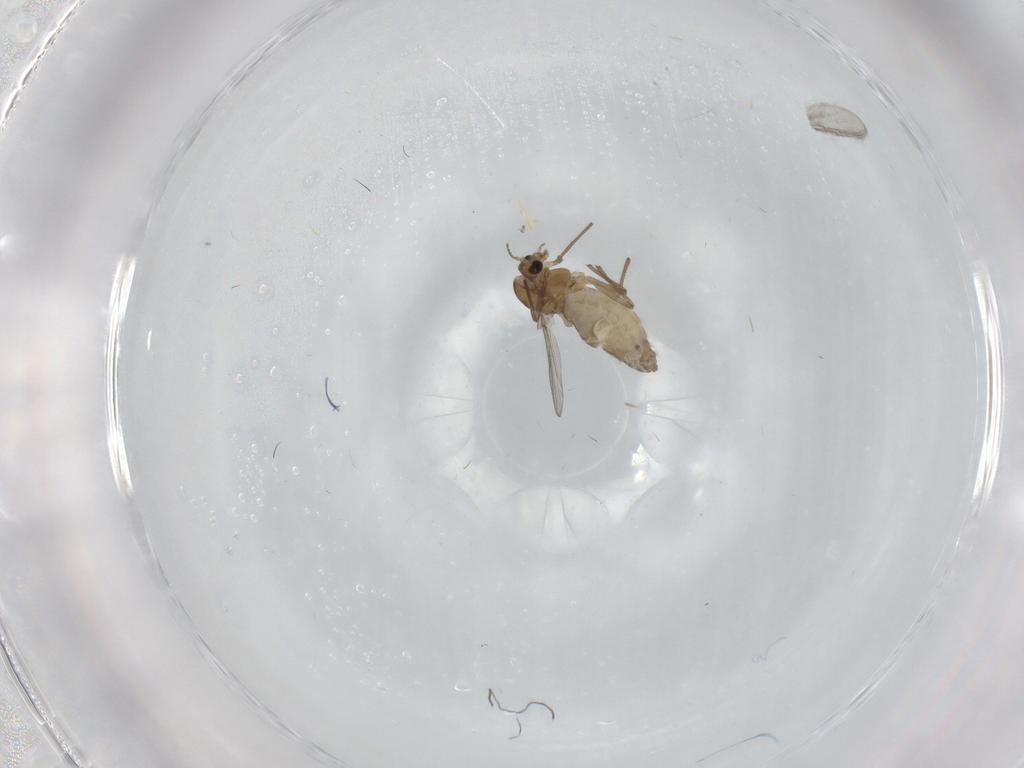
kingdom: Animalia
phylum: Arthropoda
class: Insecta
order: Diptera
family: Chironomidae
